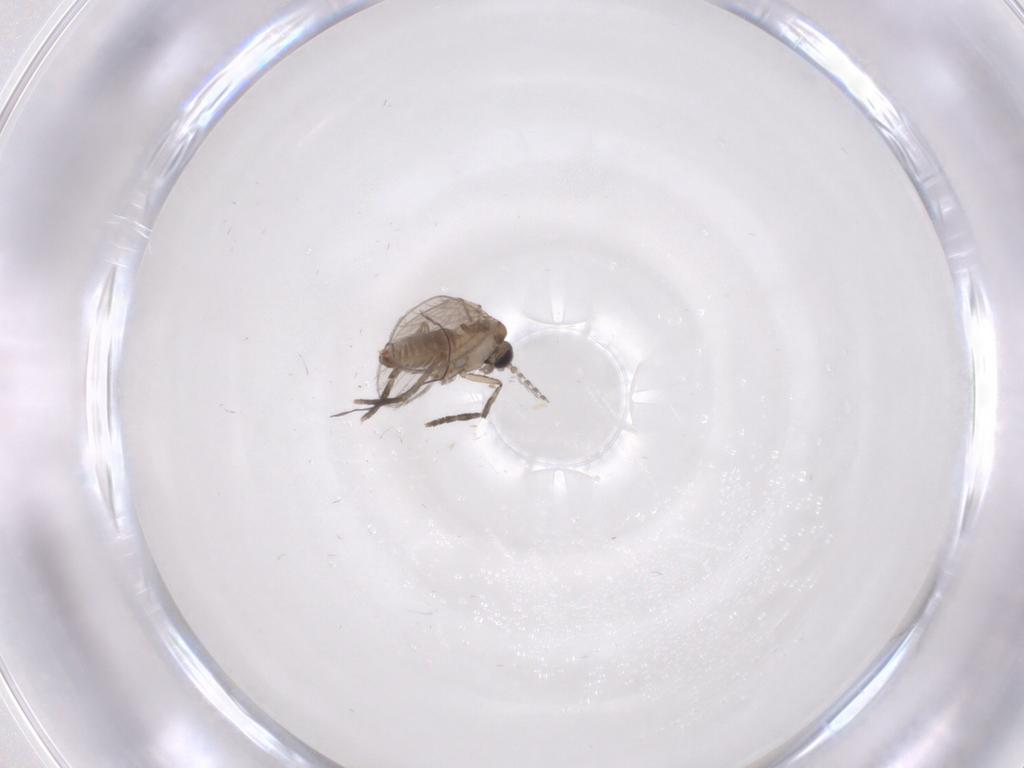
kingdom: Animalia
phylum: Arthropoda
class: Insecta
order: Diptera
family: Psychodidae
